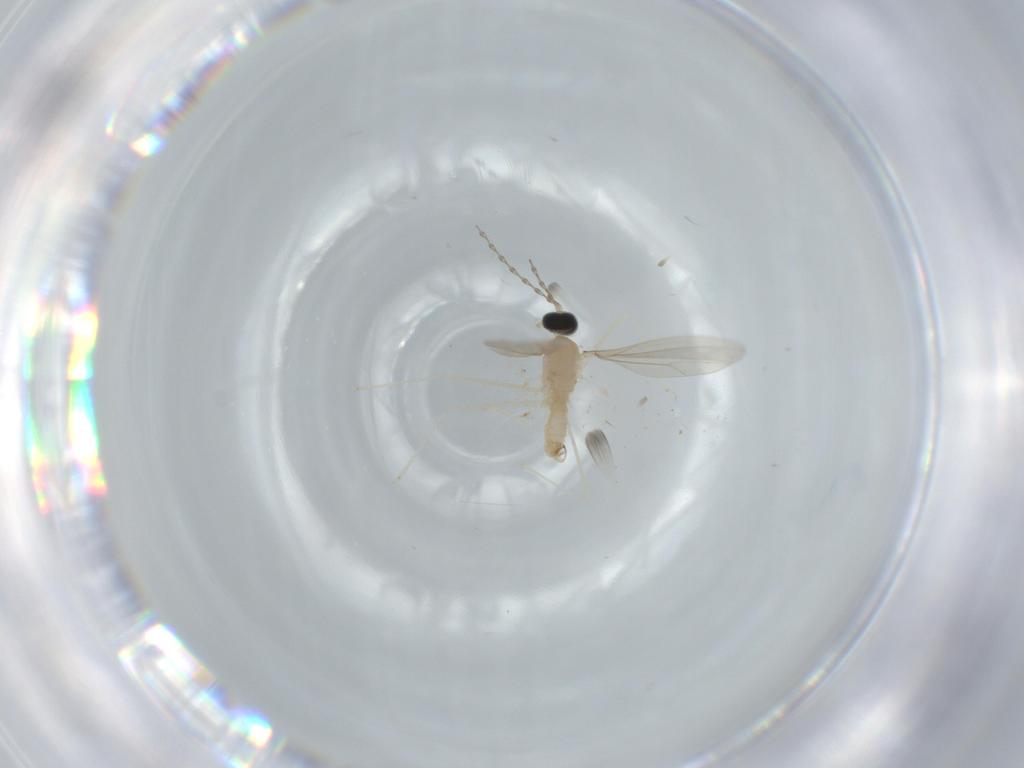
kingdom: Animalia
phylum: Arthropoda
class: Insecta
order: Diptera
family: Cecidomyiidae
